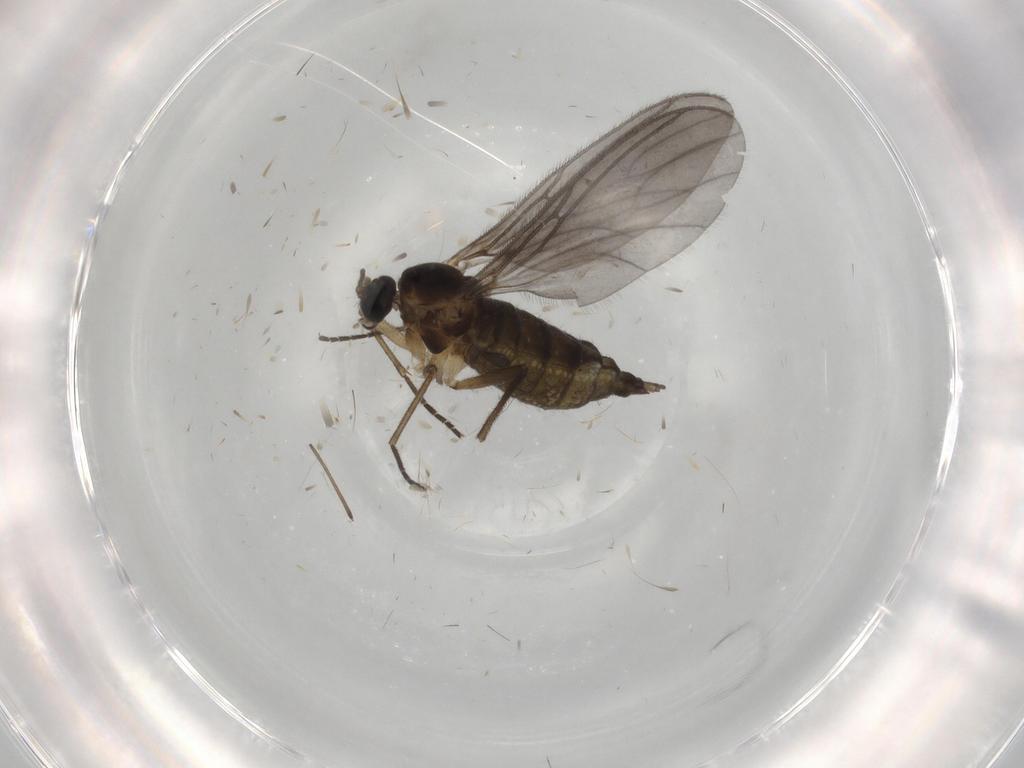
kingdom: Animalia
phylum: Arthropoda
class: Insecta
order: Diptera
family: Sciaridae
